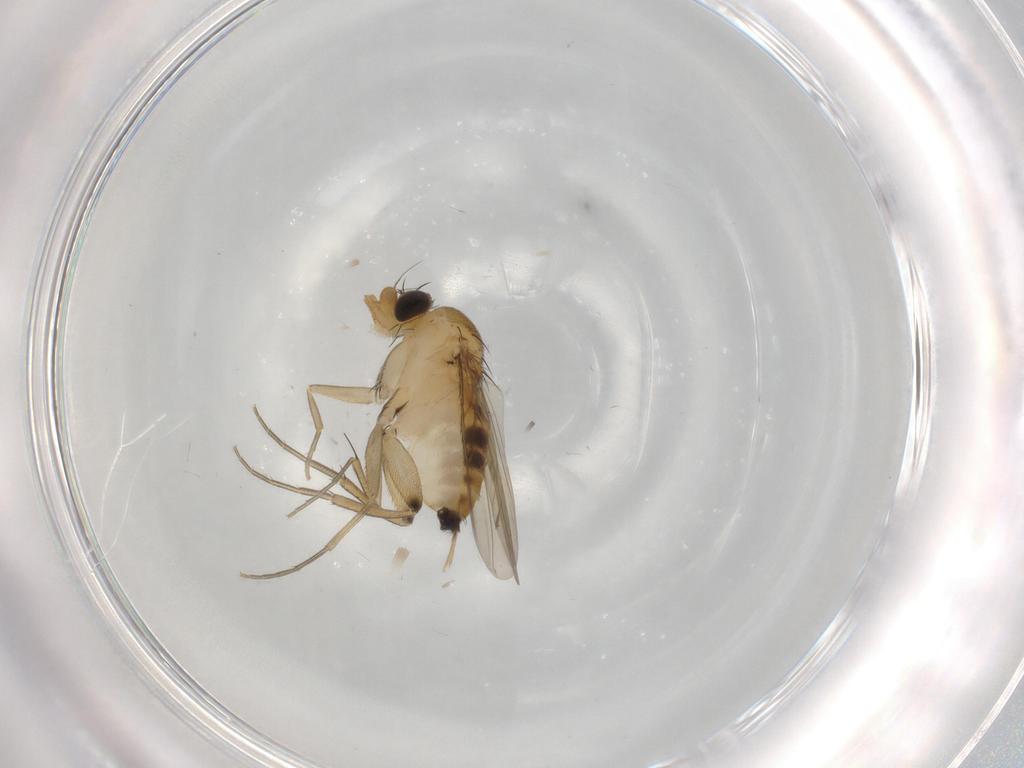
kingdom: Animalia
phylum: Arthropoda
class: Insecta
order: Diptera
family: Phoridae
